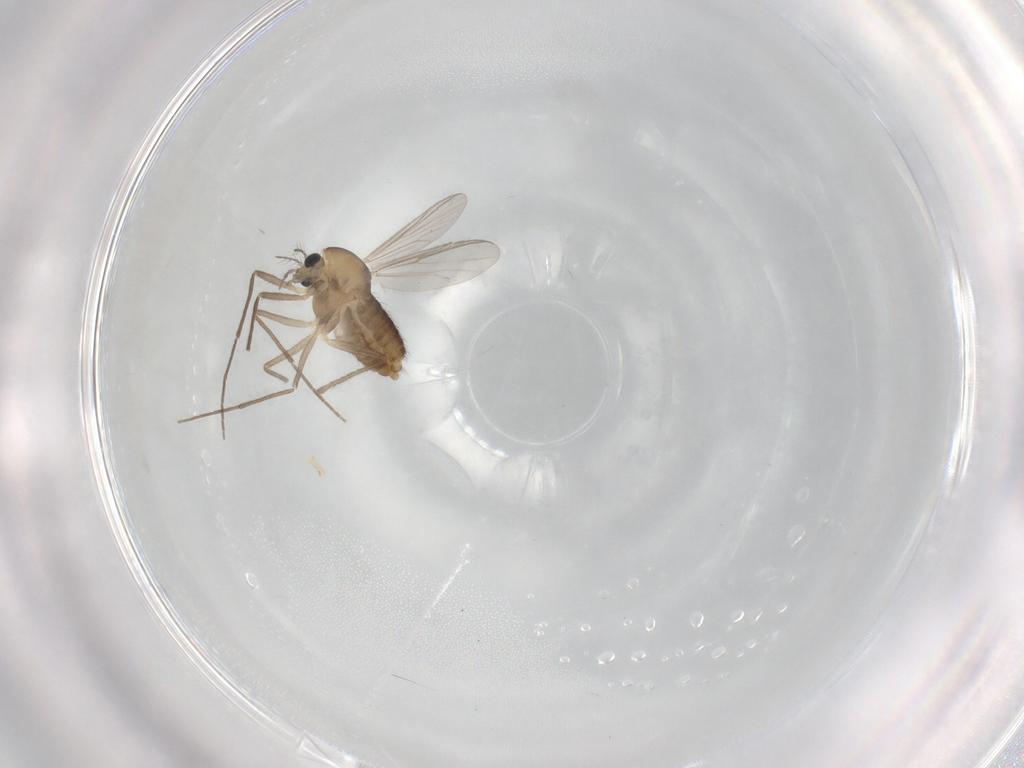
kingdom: Animalia
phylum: Arthropoda
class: Insecta
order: Diptera
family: Chironomidae
